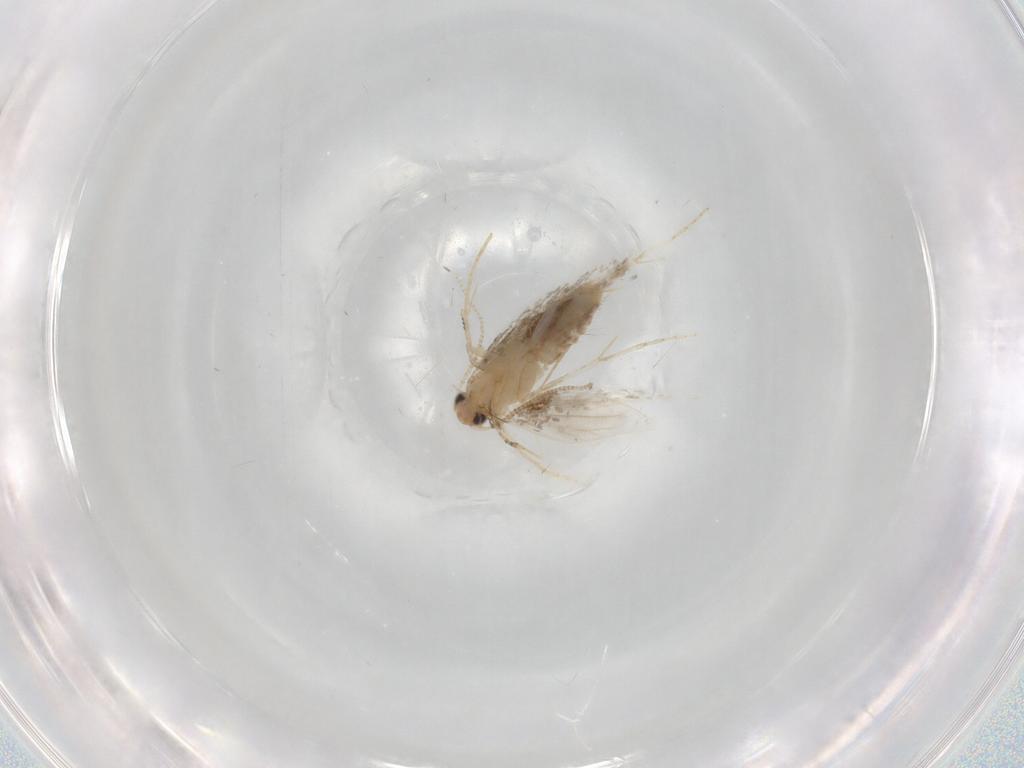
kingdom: Animalia
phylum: Arthropoda
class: Insecta
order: Lepidoptera
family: Tineidae
